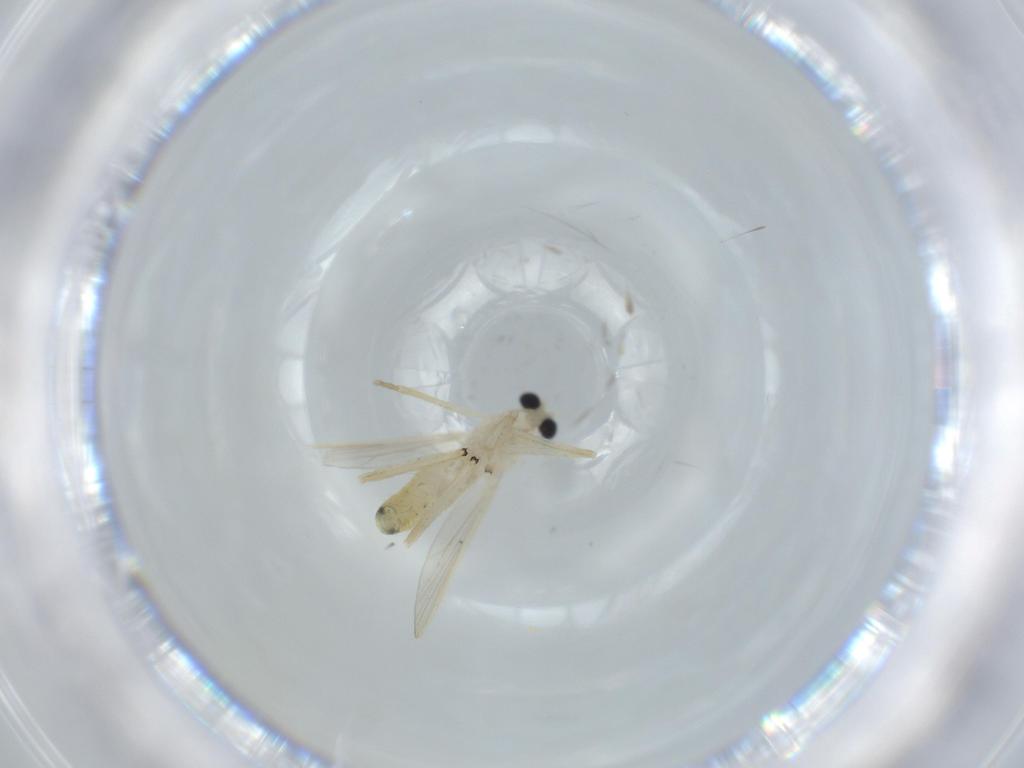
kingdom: Animalia
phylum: Arthropoda
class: Insecta
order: Diptera
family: Chironomidae
